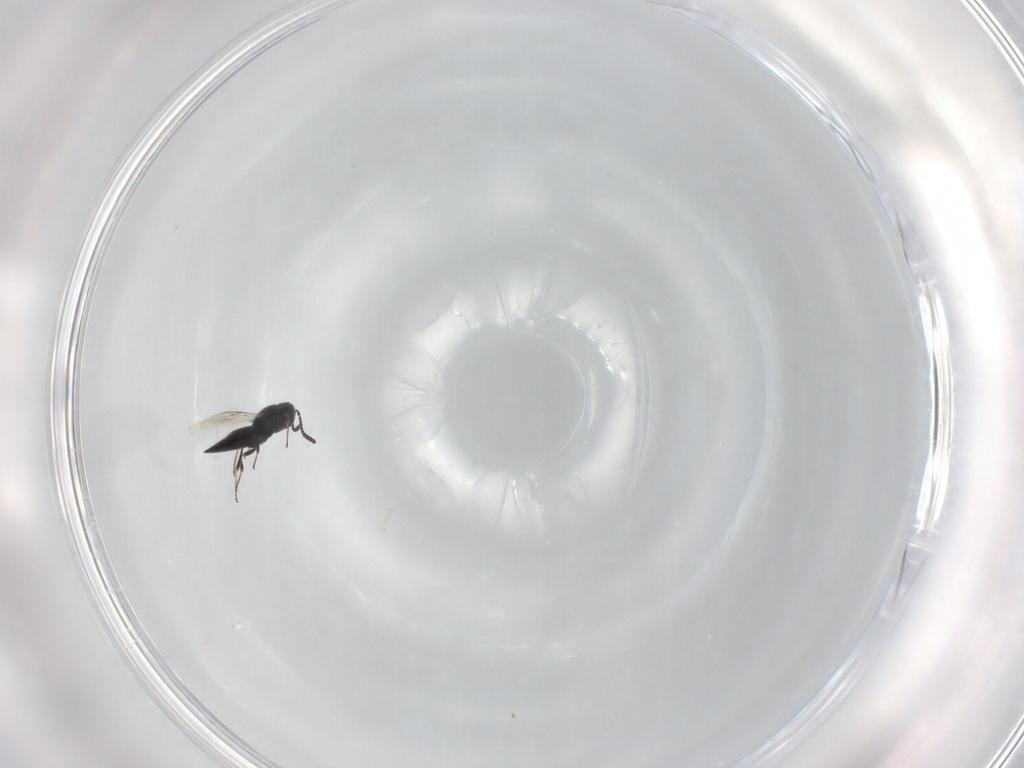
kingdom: Animalia
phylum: Arthropoda
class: Insecta
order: Hymenoptera
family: Scelionidae
